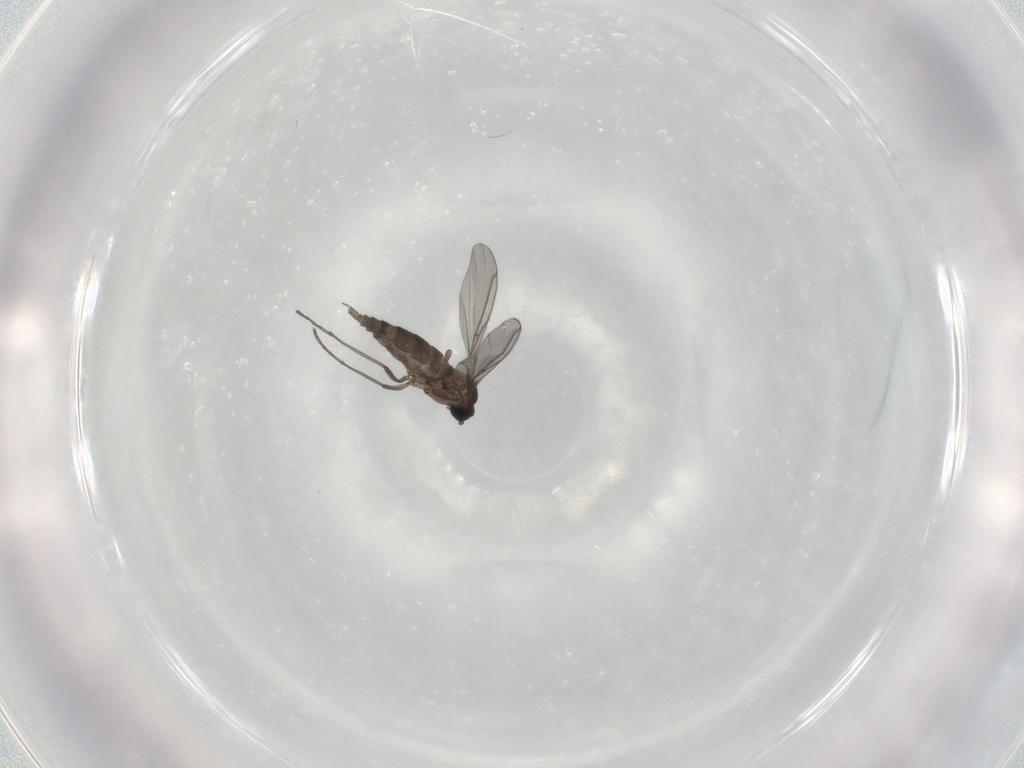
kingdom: Animalia
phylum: Arthropoda
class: Insecta
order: Diptera
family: Sciaridae
